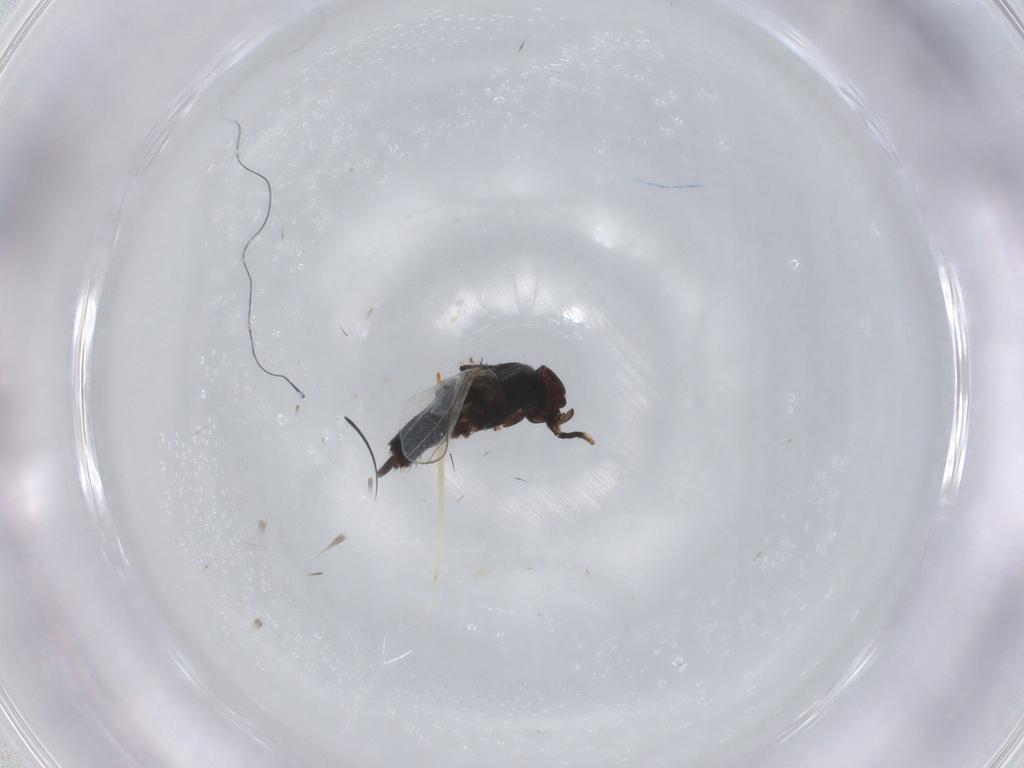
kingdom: Animalia
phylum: Arthropoda
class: Insecta
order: Diptera
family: Milichiidae
